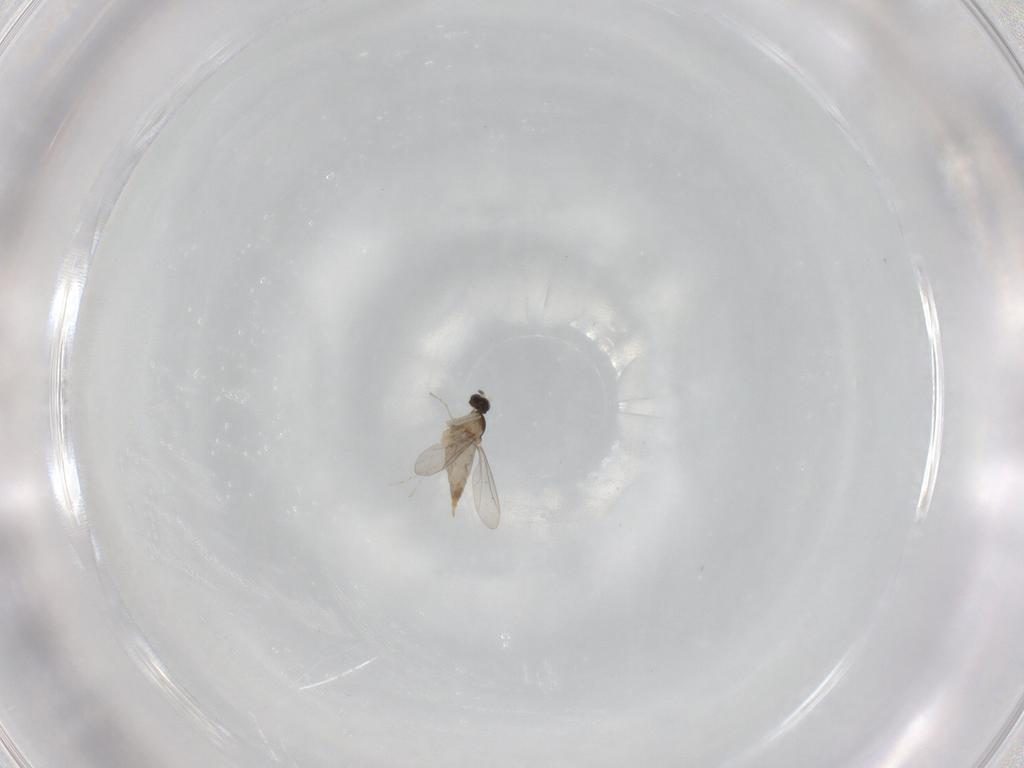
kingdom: Animalia
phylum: Arthropoda
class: Insecta
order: Diptera
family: Cecidomyiidae
